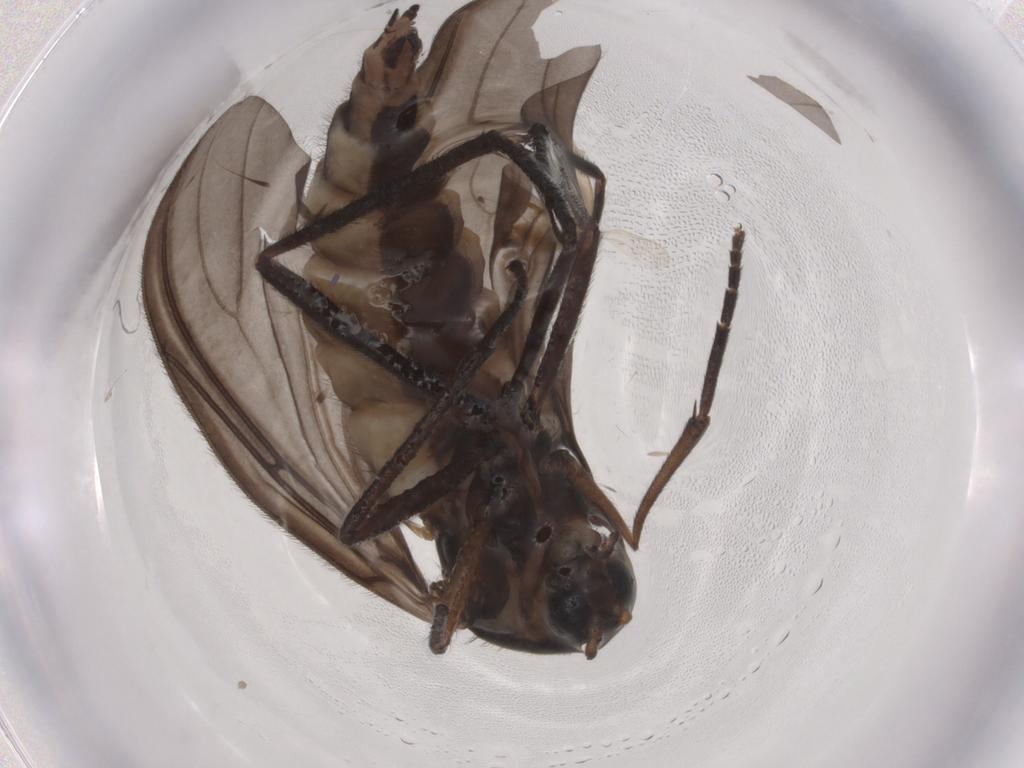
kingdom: Animalia
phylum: Arthropoda
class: Insecta
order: Diptera
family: Sciaridae
